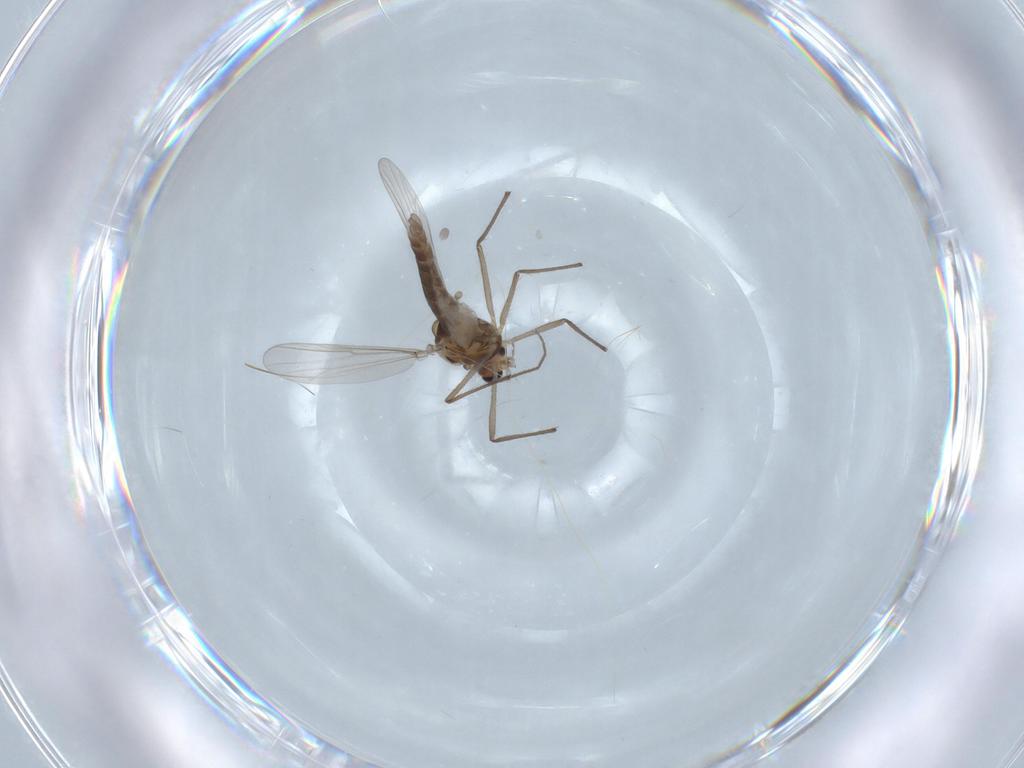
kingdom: Animalia
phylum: Arthropoda
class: Insecta
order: Diptera
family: Chironomidae
